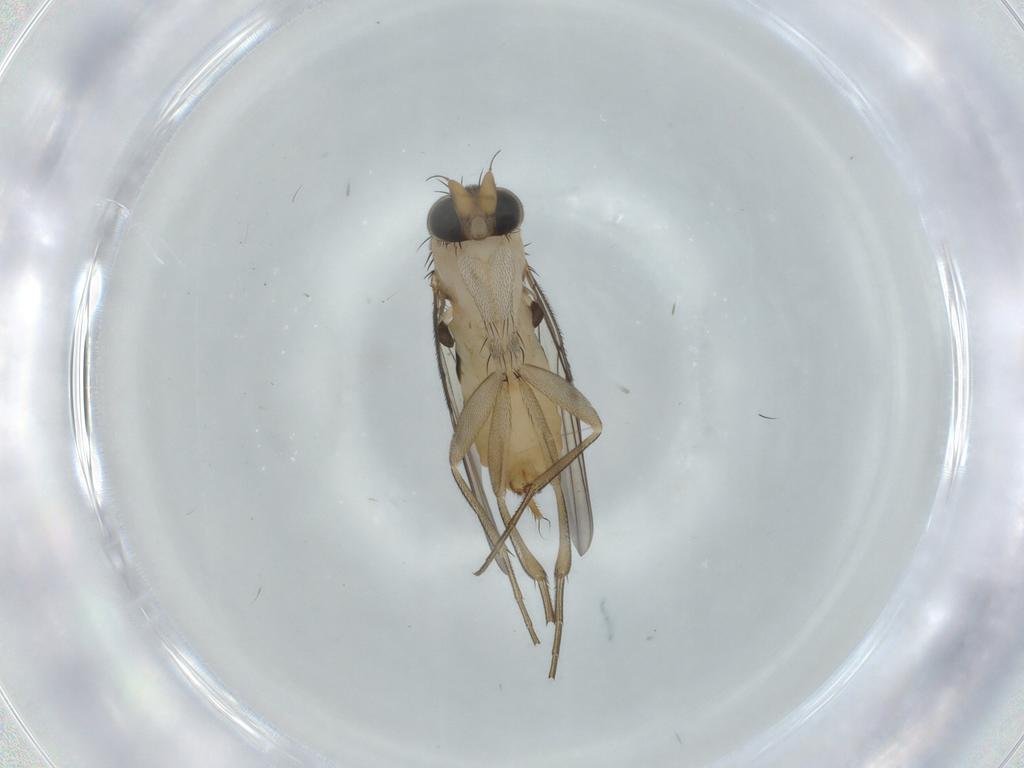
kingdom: Animalia
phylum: Arthropoda
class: Insecta
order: Diptera
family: Phoridae
